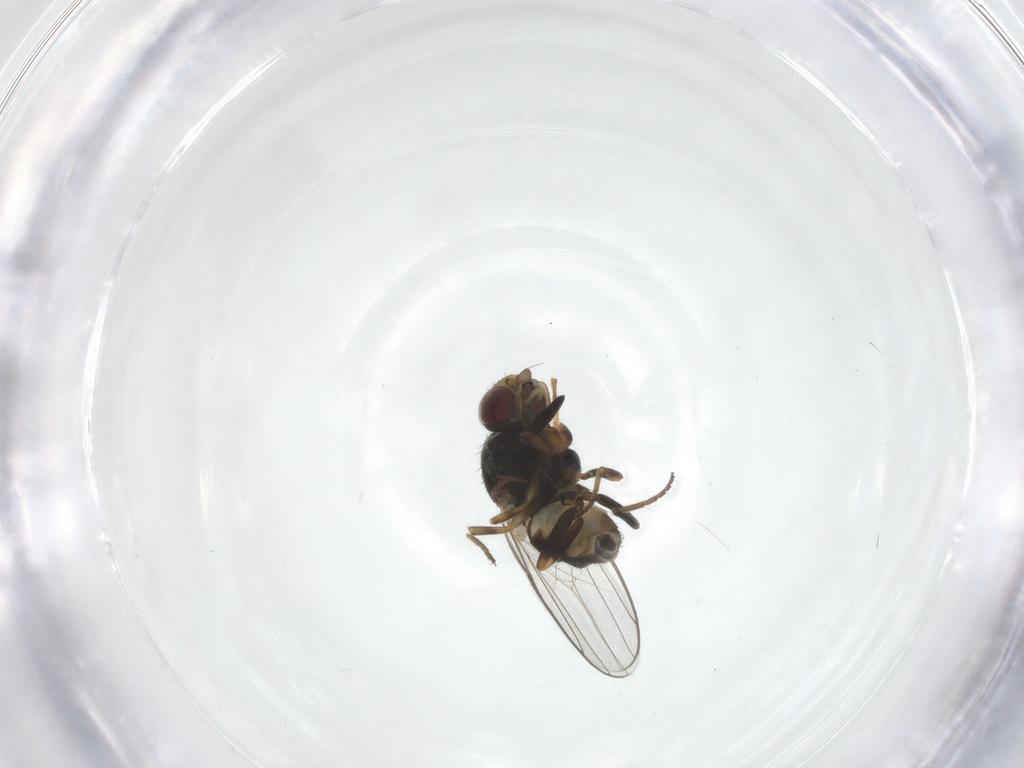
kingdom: Animalia
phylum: Arthropoda
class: Insecta
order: Diptera
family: Chloropidae
